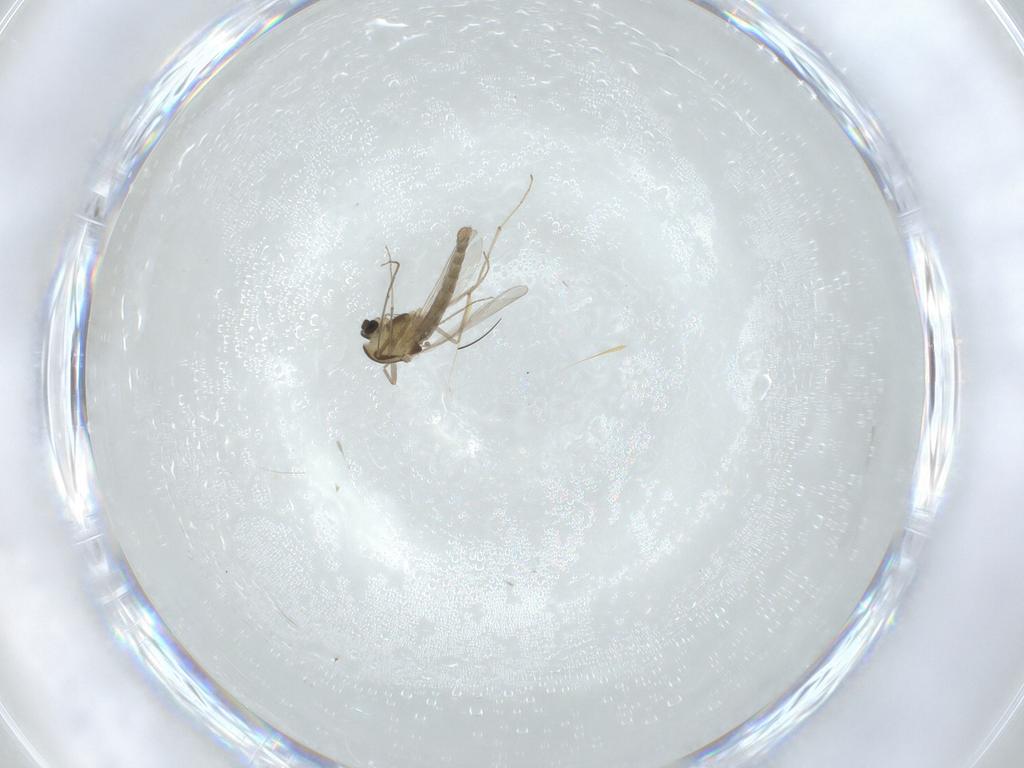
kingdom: Animalia
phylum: Arthropoda
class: Insecta
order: Diptera
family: Chironomidae
